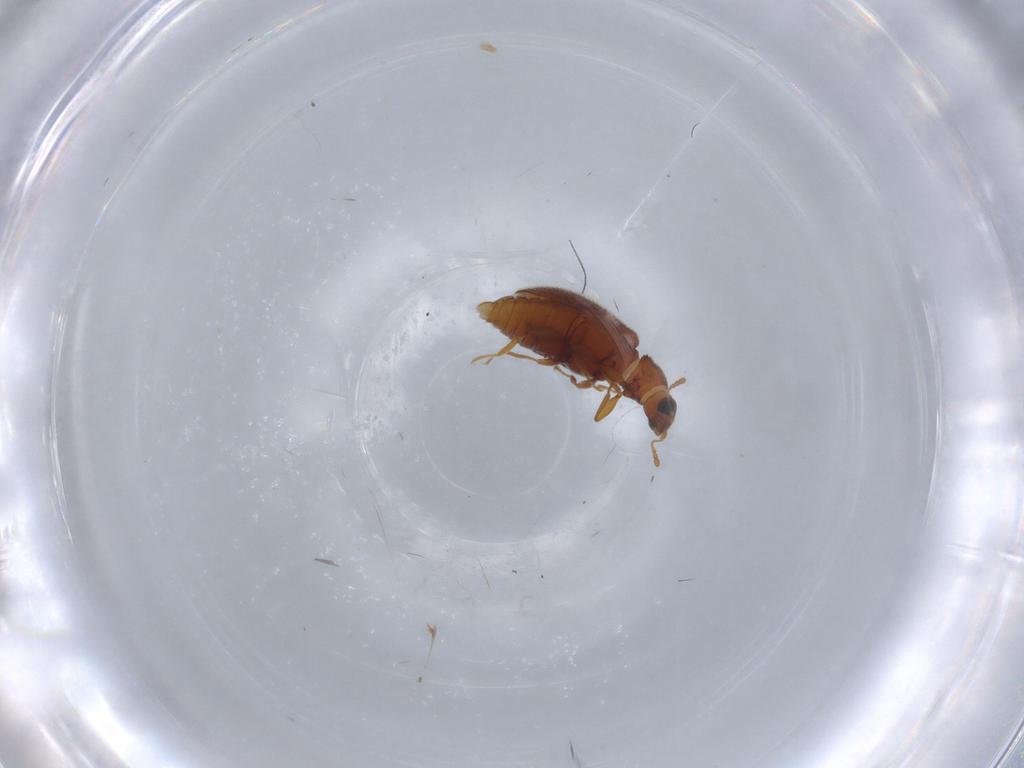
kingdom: Animalia
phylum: Arthropoda
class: Insecta
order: Coleoptera
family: Latridiidae
